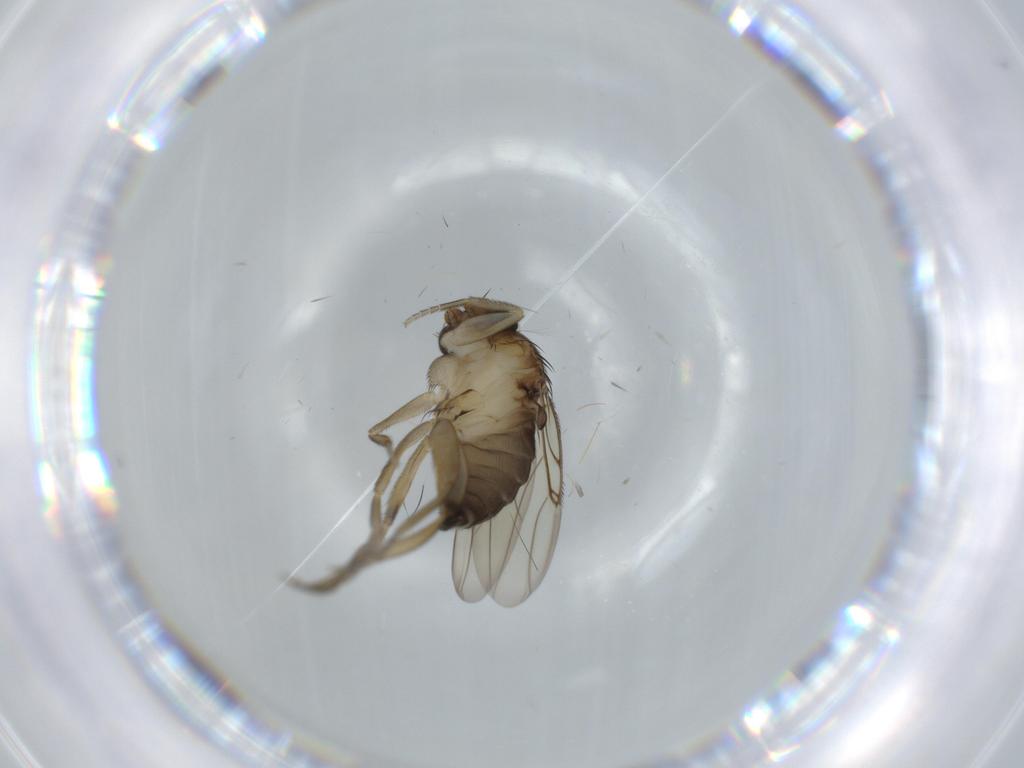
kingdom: Animalia
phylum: Arthropoda
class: Insecta
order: Diptera
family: Phoridae
